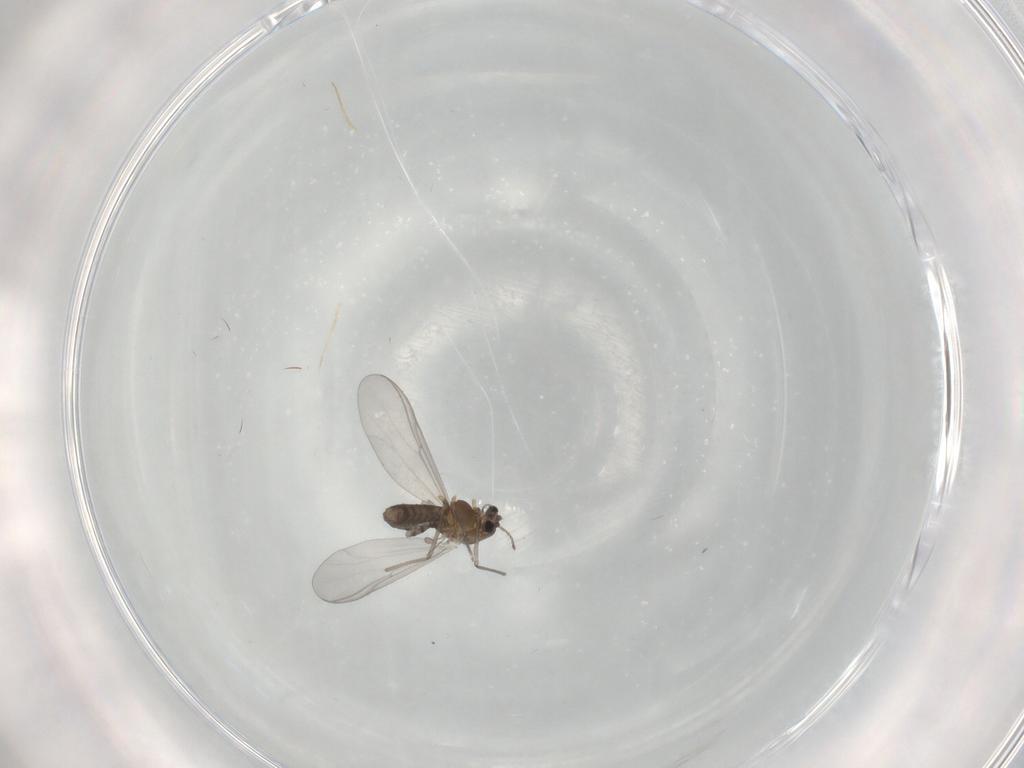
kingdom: Animalia
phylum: Arthropoda
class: Insecta
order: Diptera
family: Chironomidae
